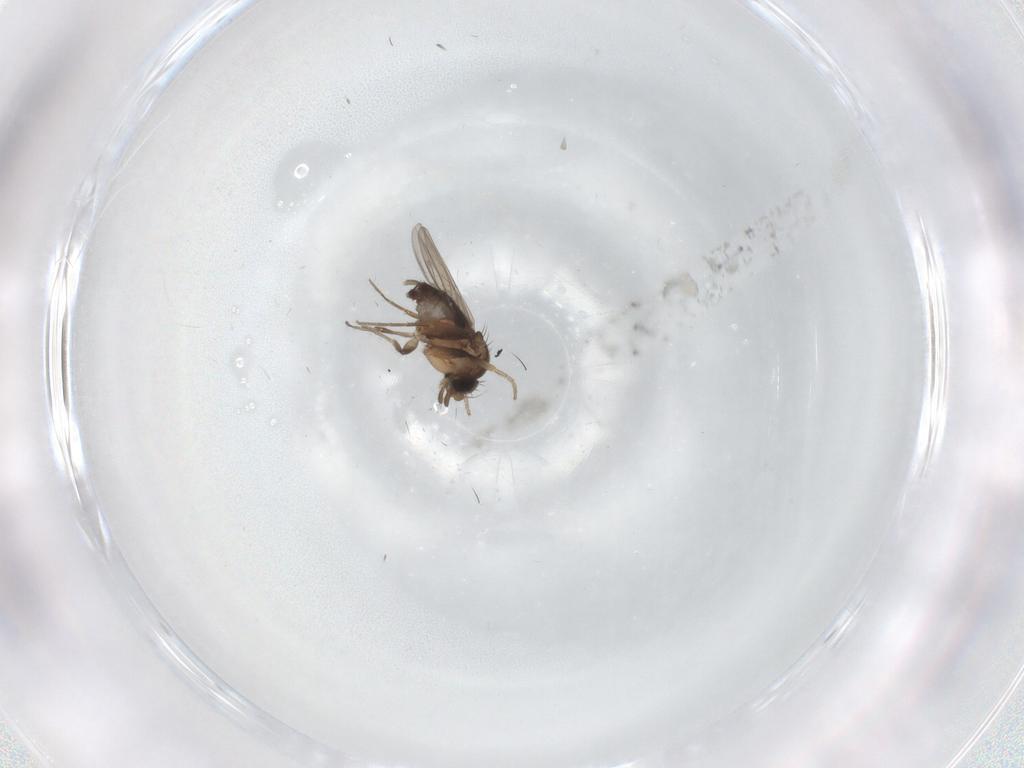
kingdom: Animalia
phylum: Arthropoda
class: Insecta
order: Diptera
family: Phoridae
